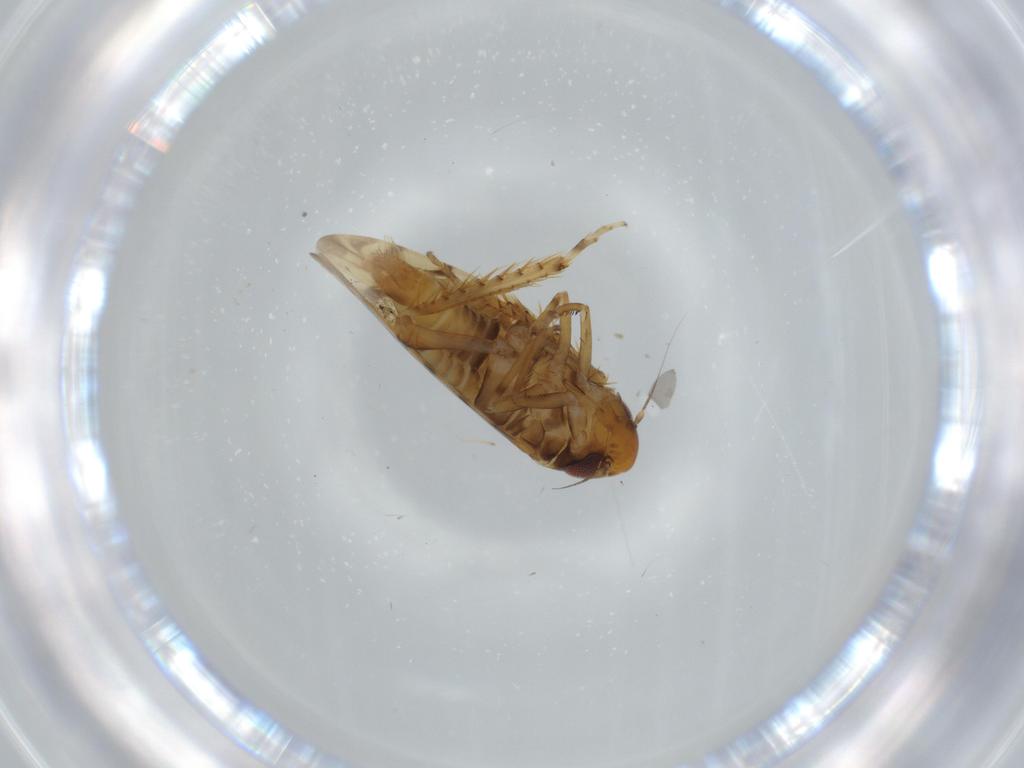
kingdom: Animalia
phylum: Arthropoda
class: Insecta
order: Hemiptera
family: Cicadellidae
